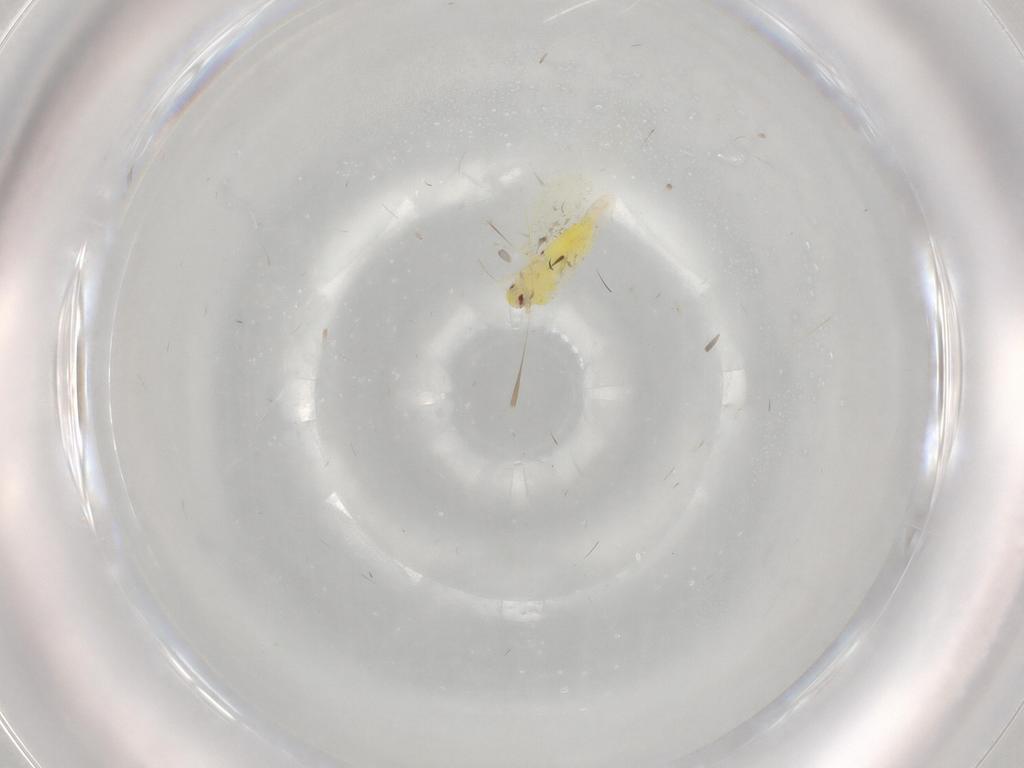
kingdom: Animalia
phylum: Arthropoda
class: Insecta
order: Hemiptera
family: Aleyrodidae
